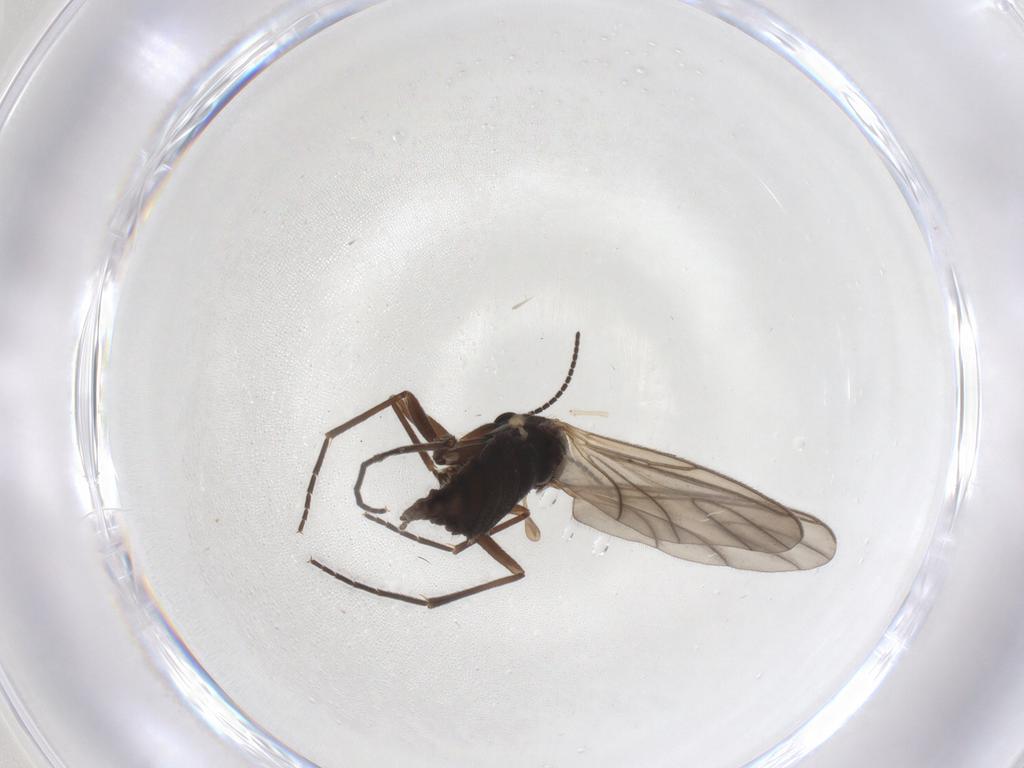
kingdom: Animalia
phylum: Arthropoda
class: Insecta
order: Diptera
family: Sciaridae
